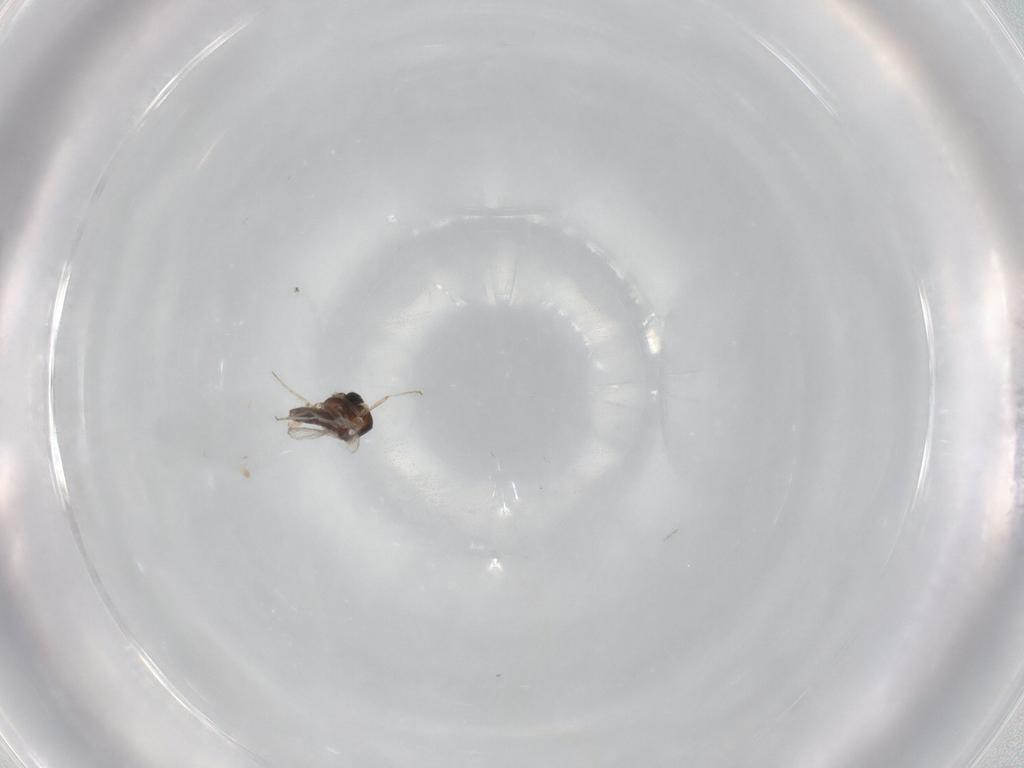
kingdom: Animalia
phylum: Arthropoda
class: Insecta
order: Diptera
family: Ceratopogonidae
